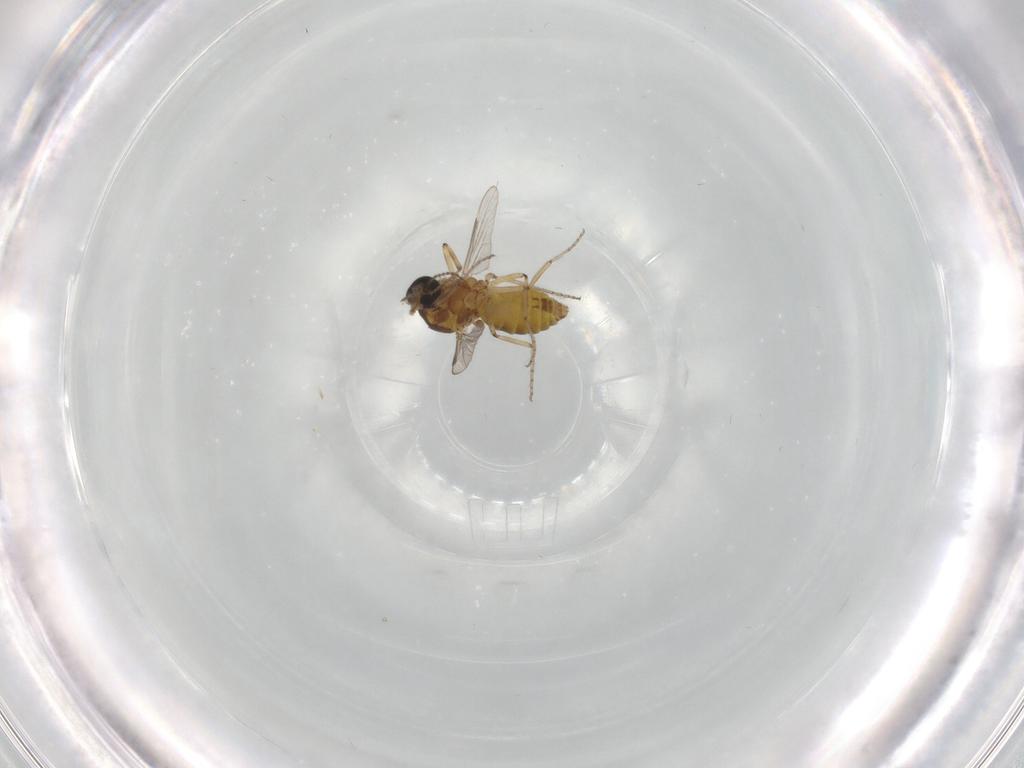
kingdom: Animalia
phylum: Arthropoda
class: Insecta
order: Diptera
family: Ceratopogonidae
